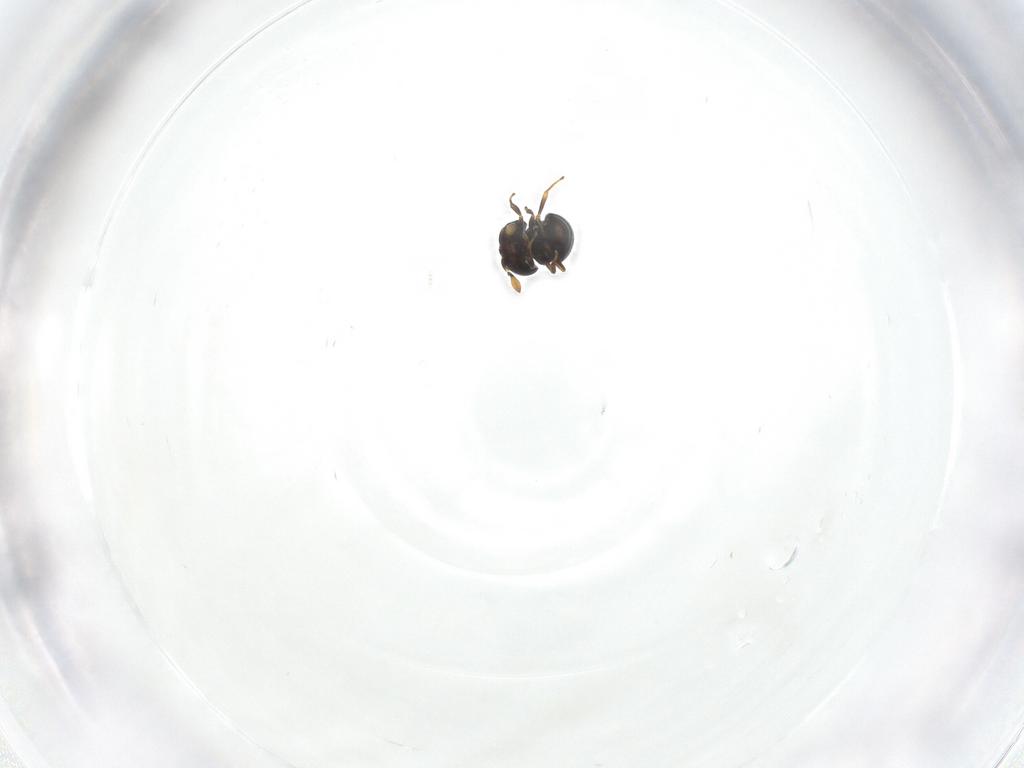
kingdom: Animalia
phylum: Arthropoda
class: Insecta
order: Hymenoptera
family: Scelionidae
